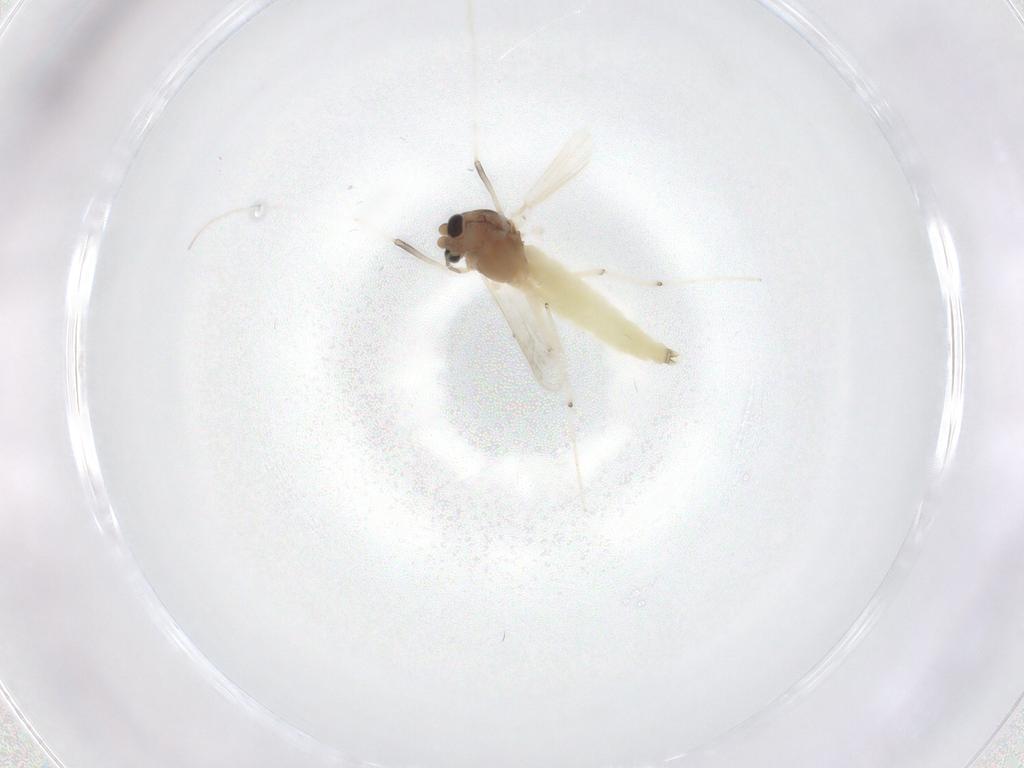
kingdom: Animalia
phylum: Arthropoda
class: Insecta
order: Diptera
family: Chironomidae
